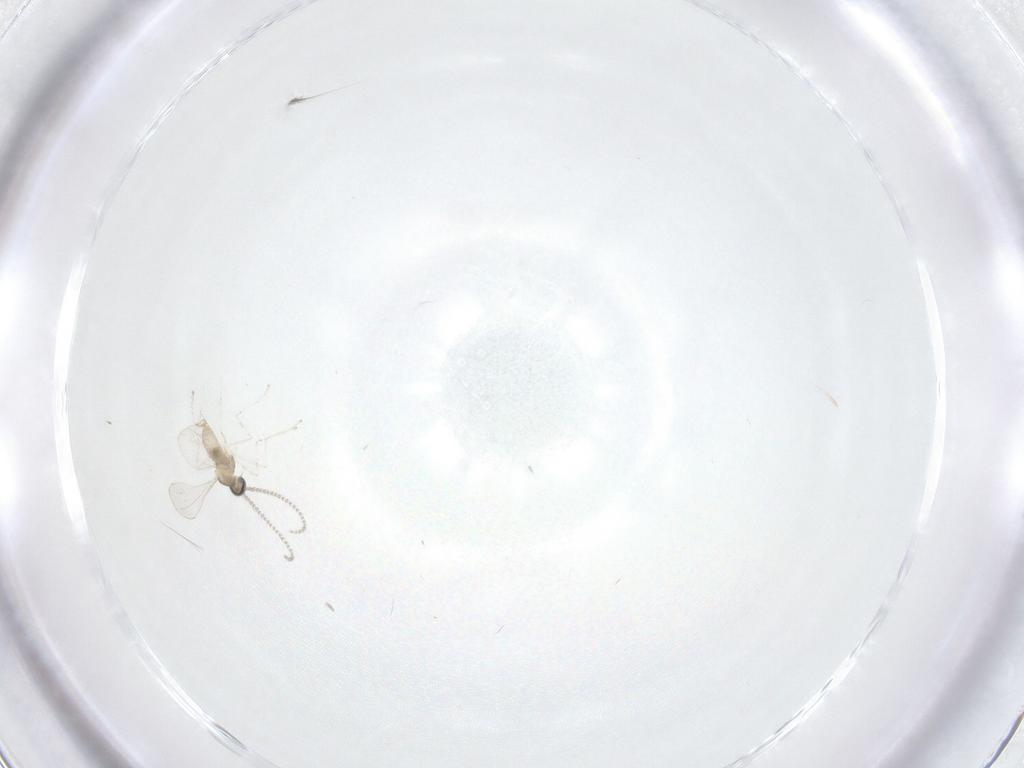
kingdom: Animalia
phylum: Arthropoda
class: Insecta
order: Diptera
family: Cecidomyiidae
